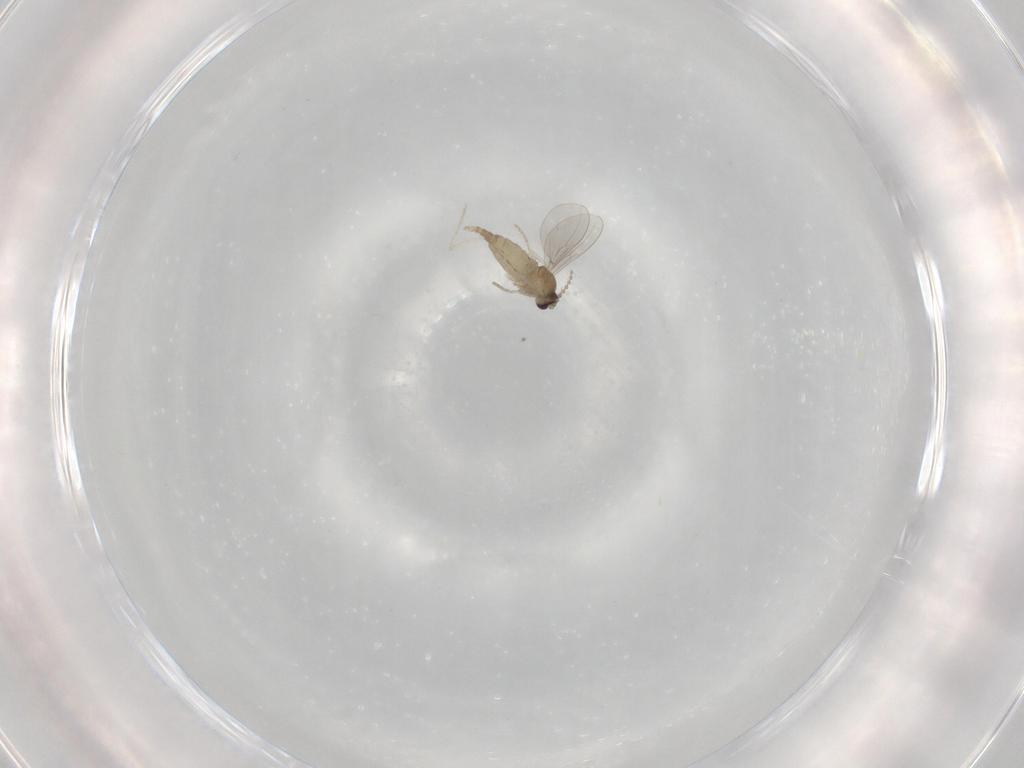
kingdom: Animalia
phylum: Arthropoda
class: Insecta
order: Diptera
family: Cecidomyiidae
